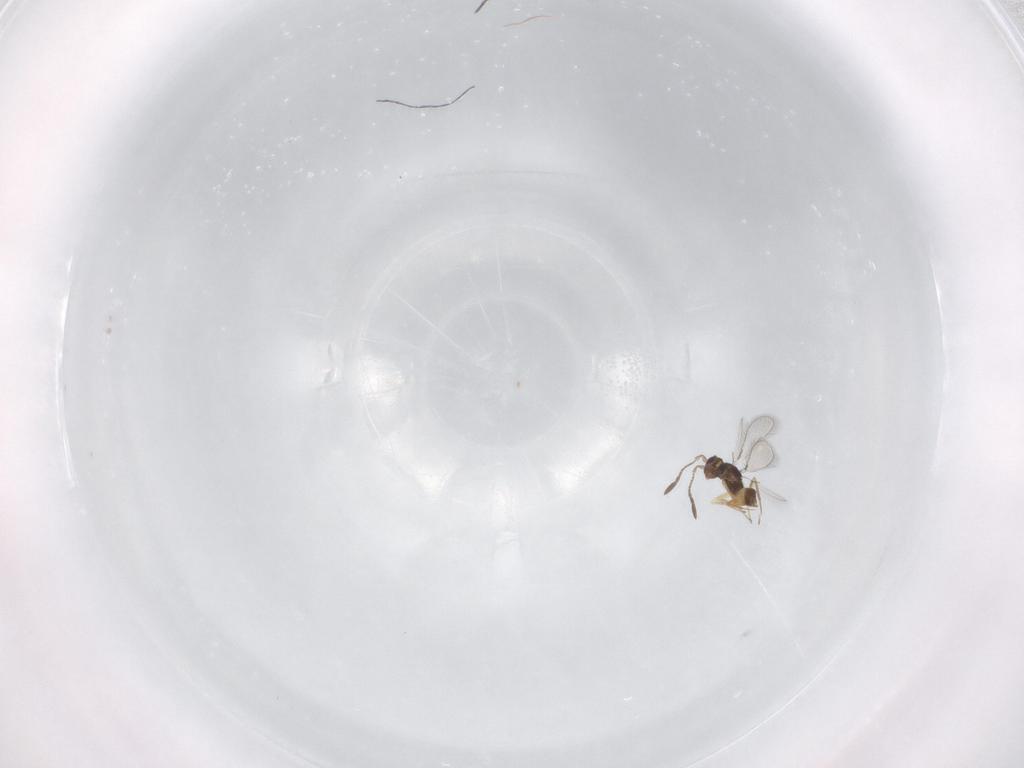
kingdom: Animalia
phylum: Arthropoda
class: Insecta
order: Hymenoptera
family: Mymaridae
